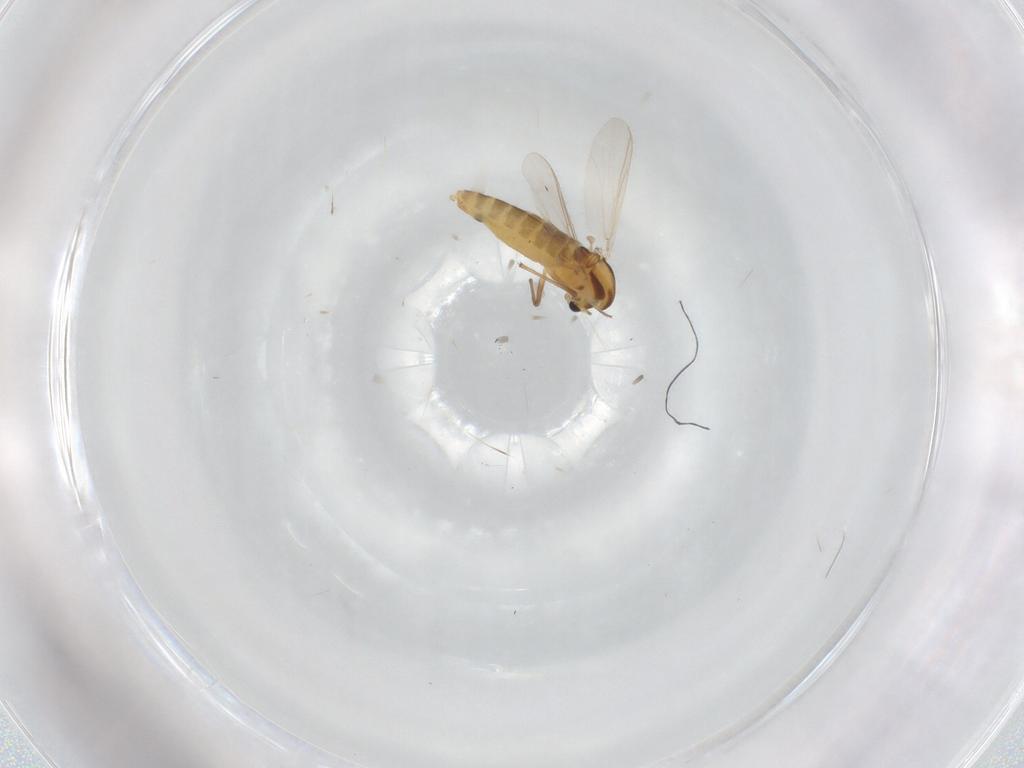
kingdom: Animalia
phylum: Arthropoda
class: Insecta
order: Diptera
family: Chironomidae
